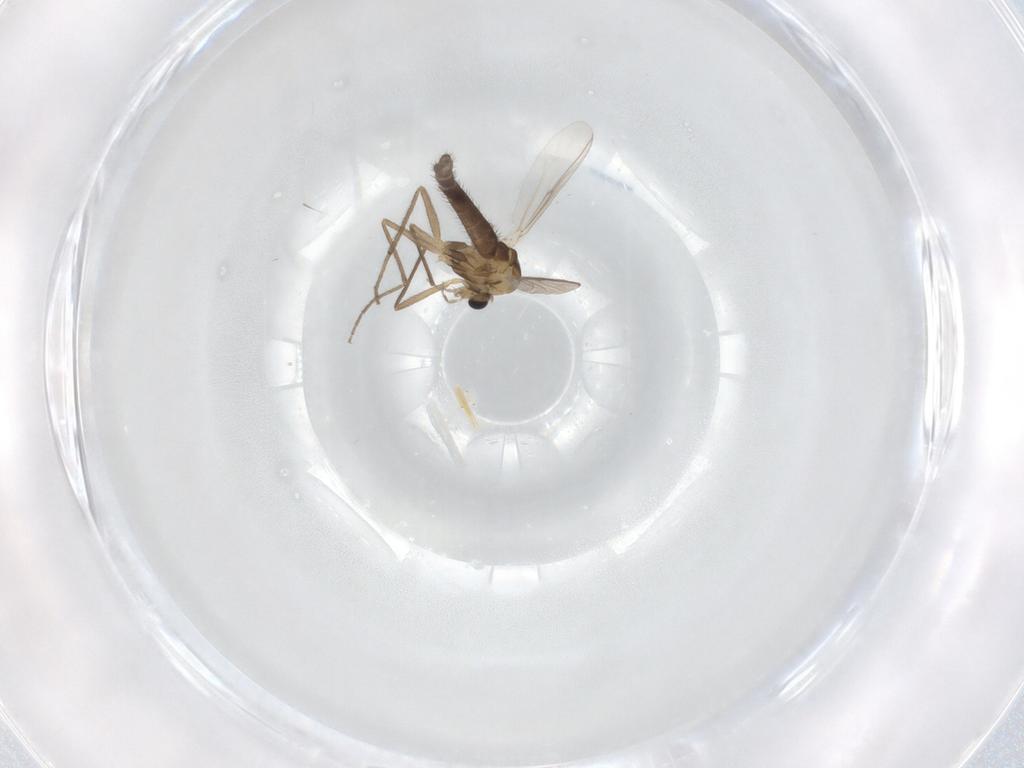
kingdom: Animalia
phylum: Arthropoda
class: Insecta
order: Diptera
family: Chironomidae
